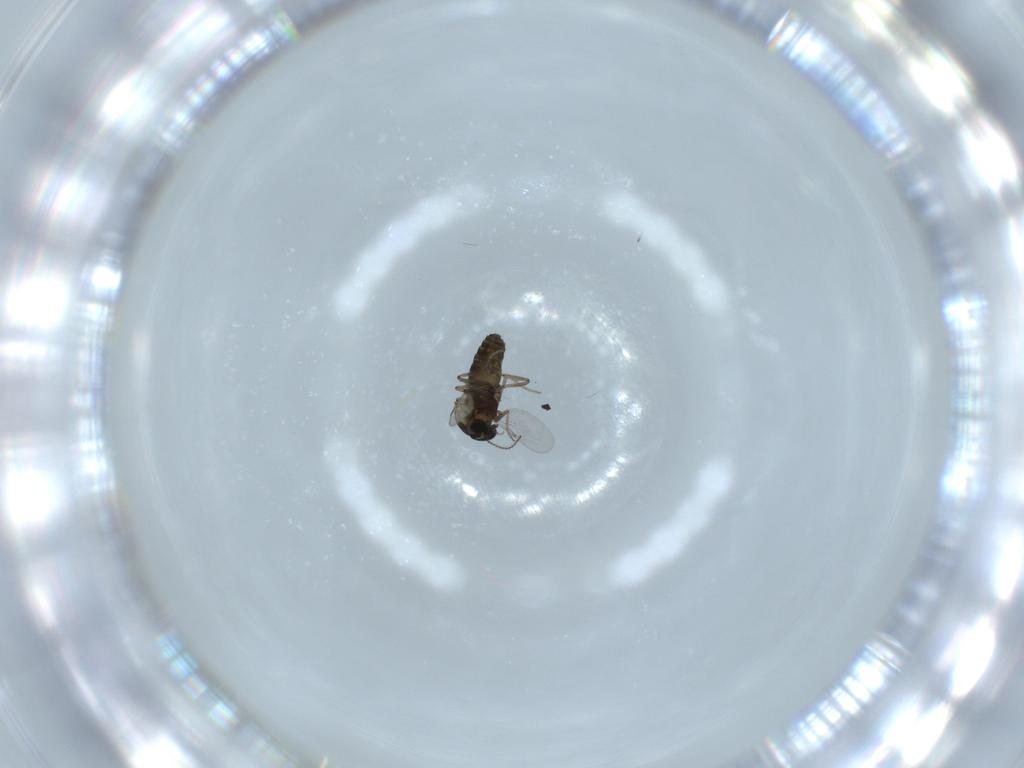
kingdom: Animalia
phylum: Arthropoda
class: Insecta
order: Diptera
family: Ceratopogonidae
